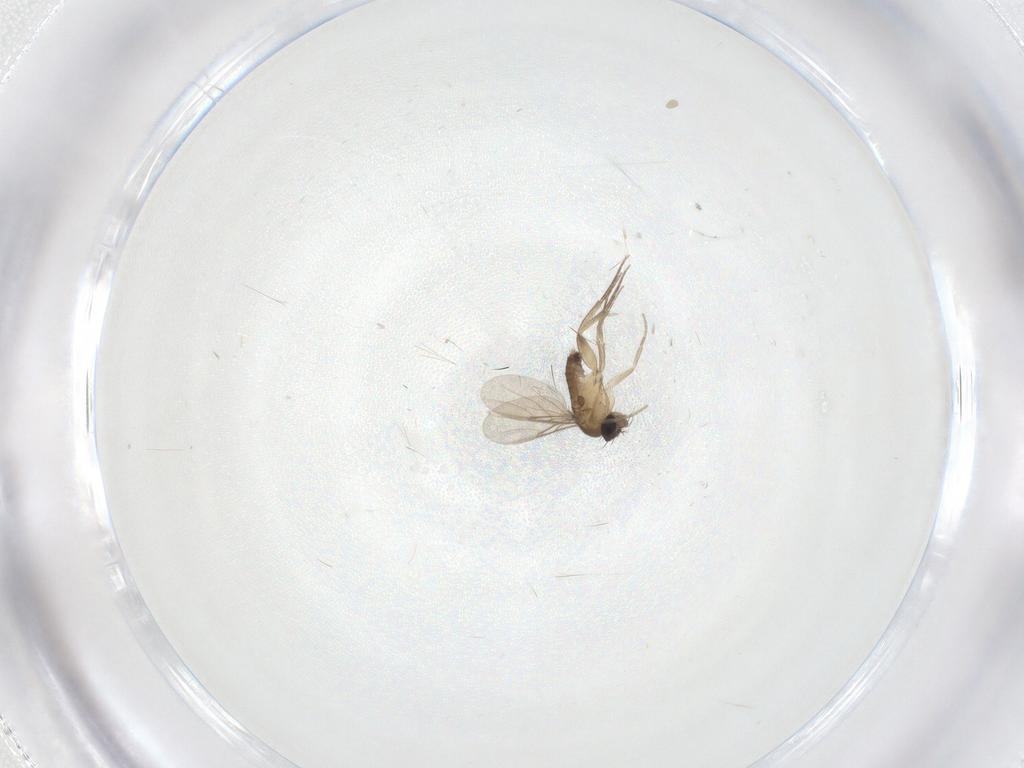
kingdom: Animalia
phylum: Arthropoda
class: Insecta
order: Diptera
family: Phoridae
